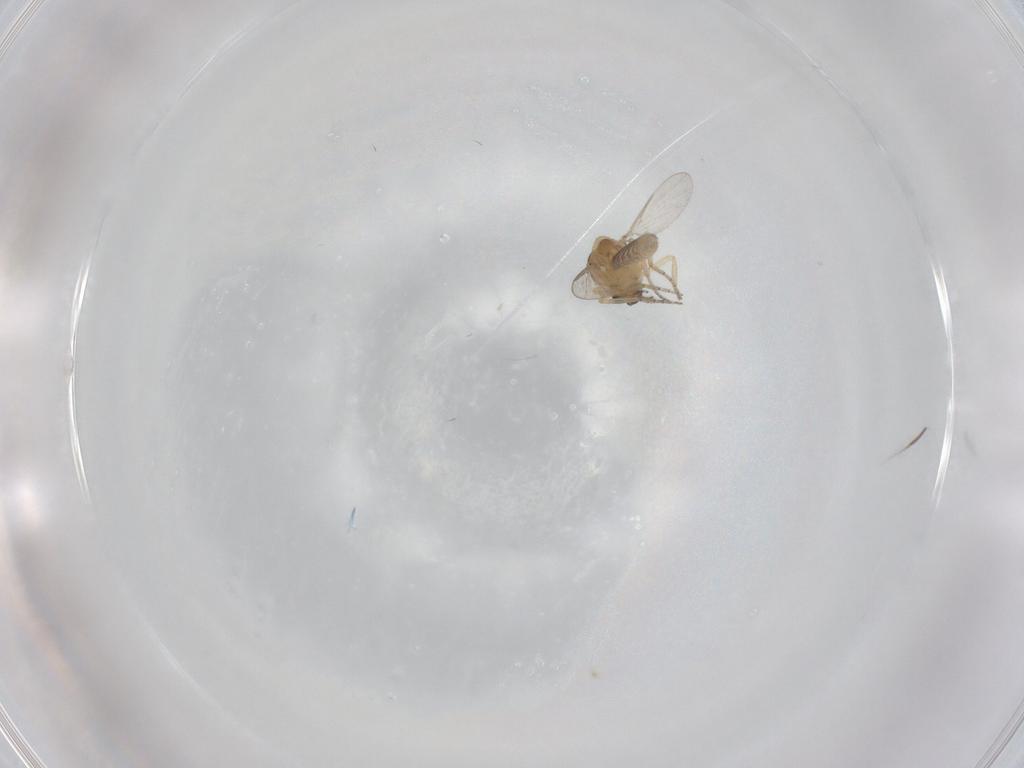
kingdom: Animalia
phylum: Arthropoda
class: Insecta
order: Diptera
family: Ceratopogonidae
